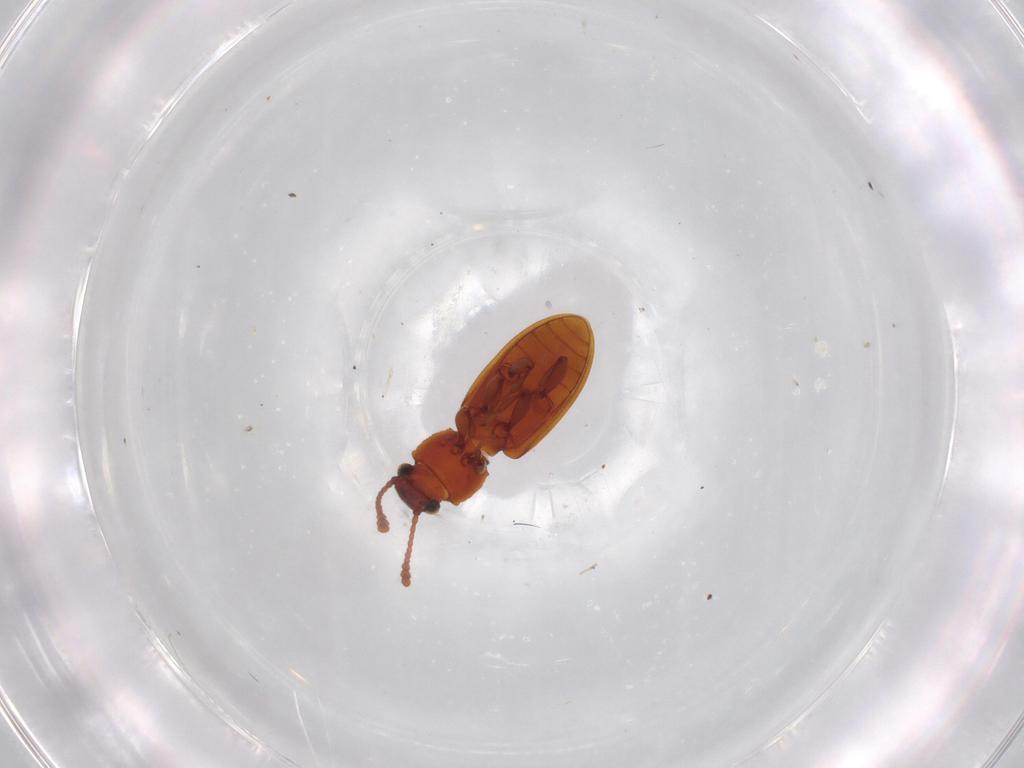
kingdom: Animalia
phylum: Arthropoda
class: Insecta
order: Coleoptera
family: Silvanidae
